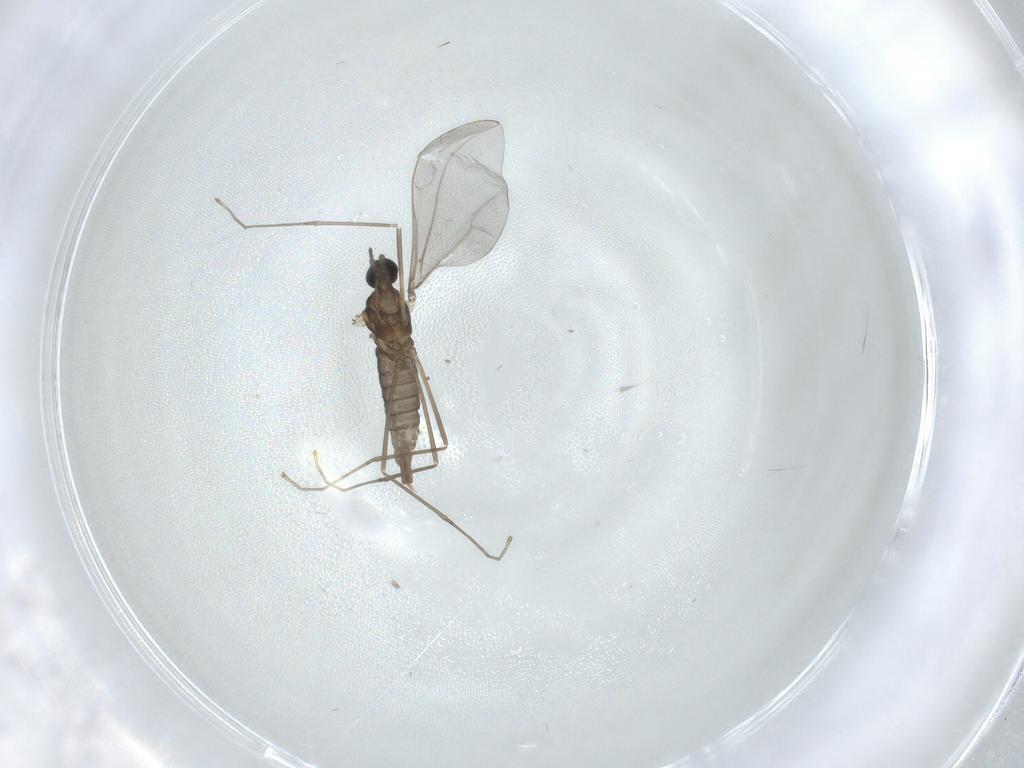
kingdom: Animalia
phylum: Arthropoda
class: Insecta
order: Diptera
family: Cecidomyiidae
